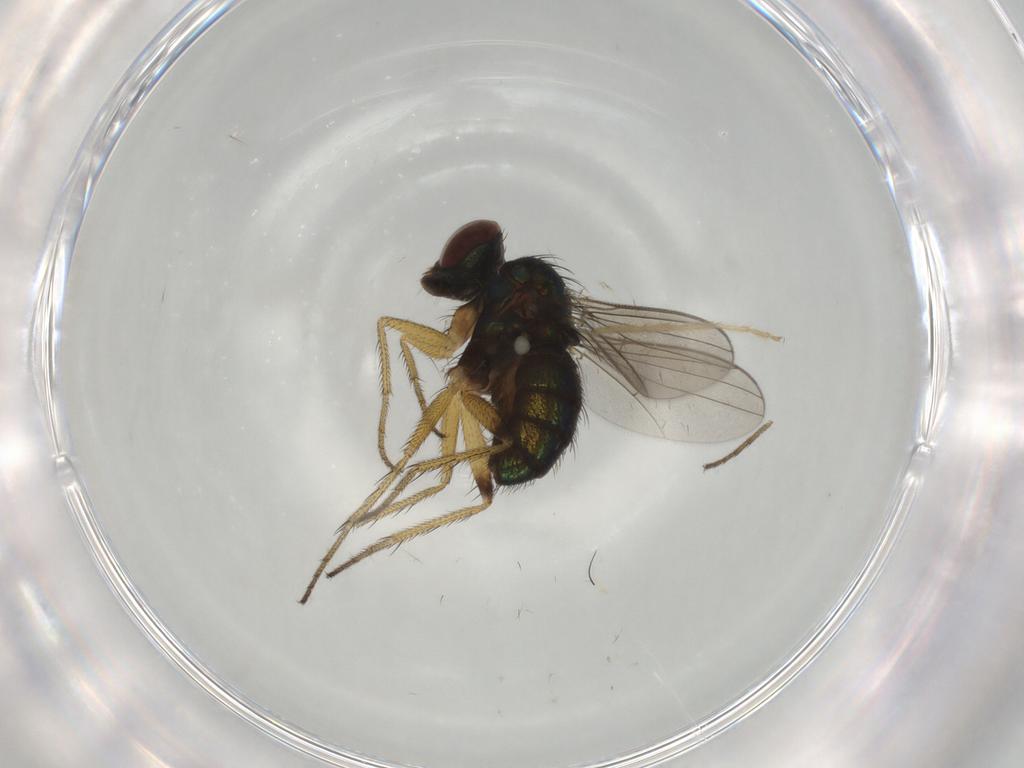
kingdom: Animalia
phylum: Arthropoda
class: Insecta
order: Diptera
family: Dolichopodidae
